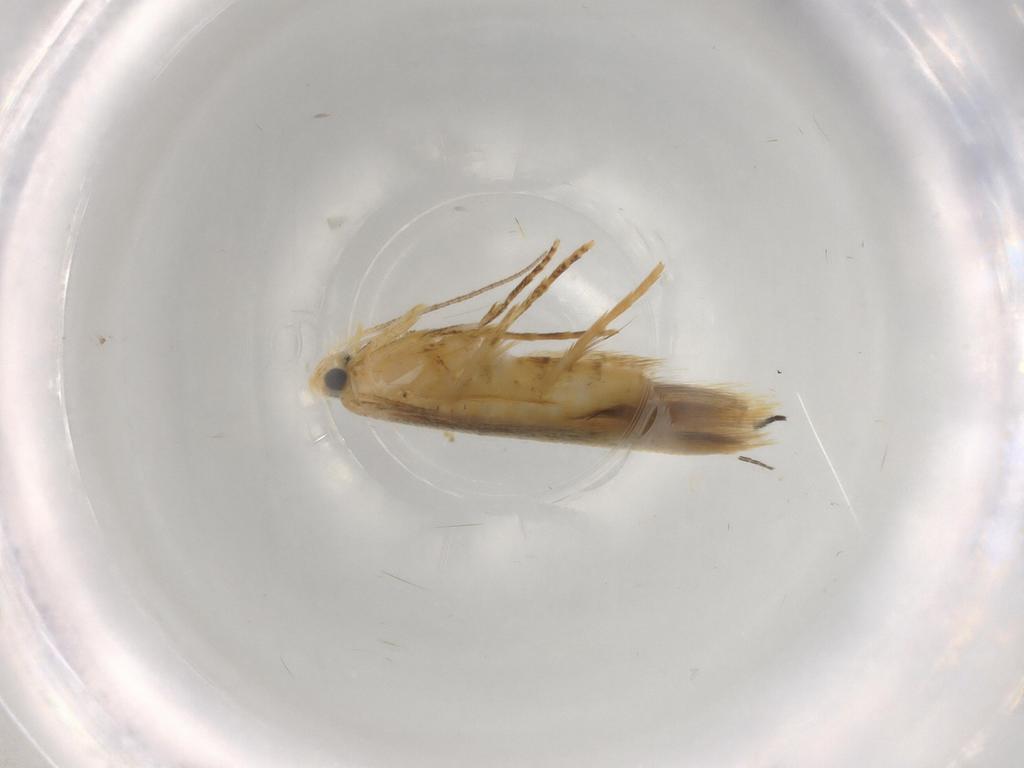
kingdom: Animalia
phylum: Arthropoda
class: Insecta
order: Lepidoptera
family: Tischeriidae
